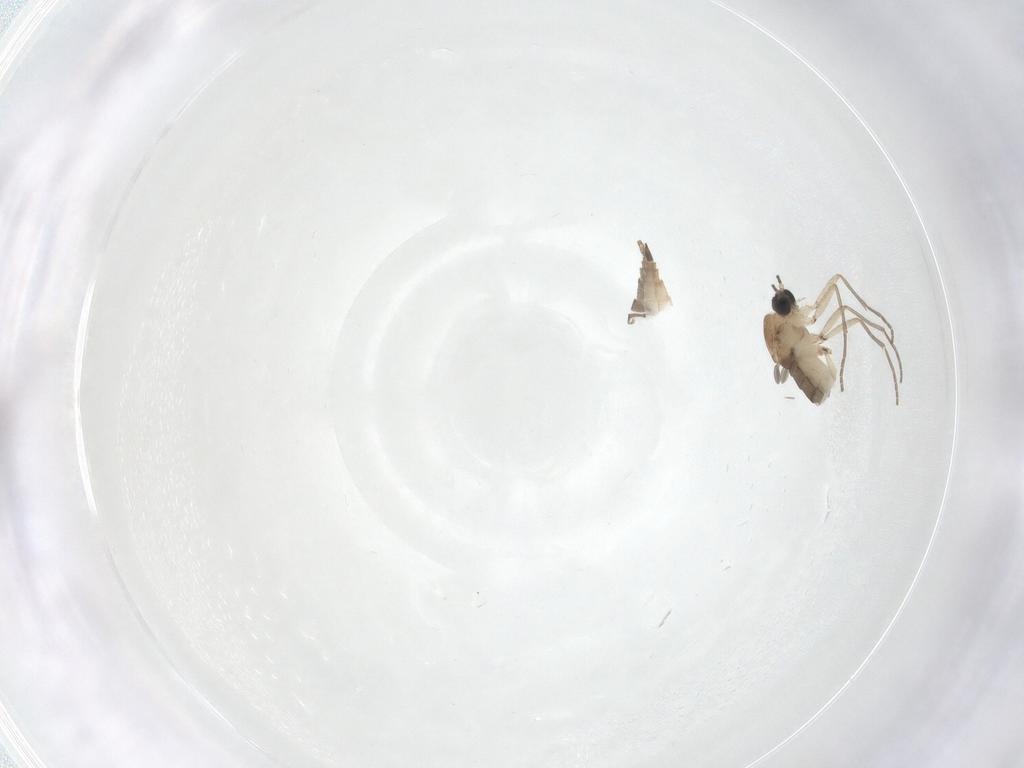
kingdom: Animalia
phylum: Arthropoda
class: Insecta
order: Diptera
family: Sciaridae
